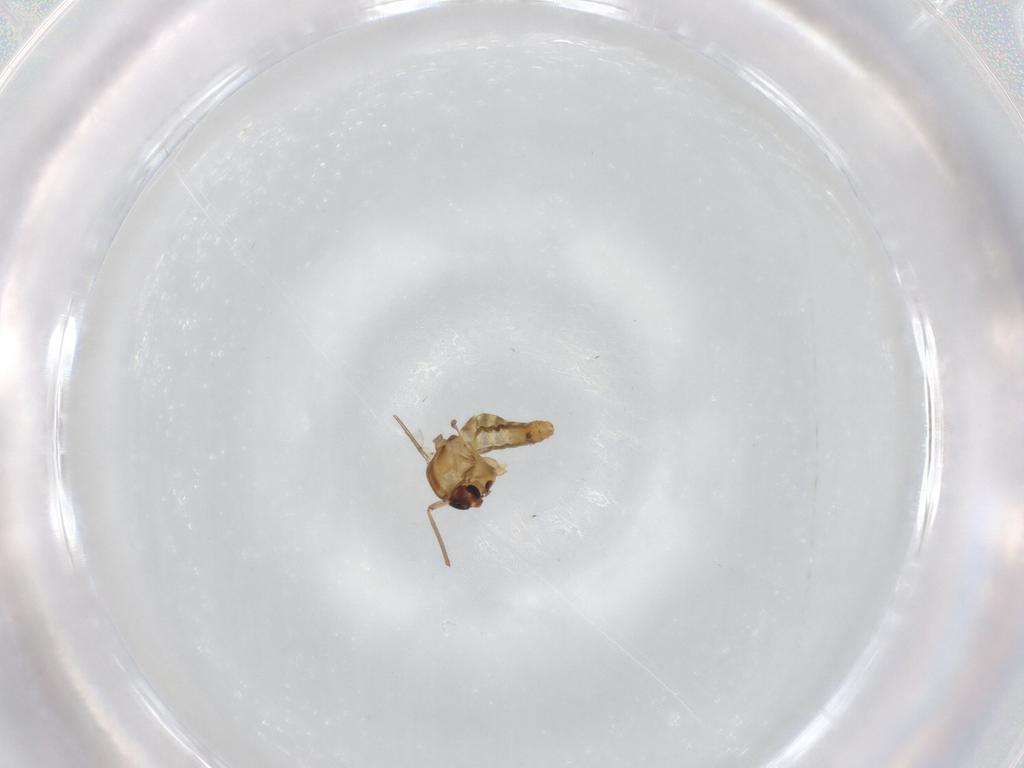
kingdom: Animalia
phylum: Arthropoda
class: Insecta
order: Diptera
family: Chironomidae
